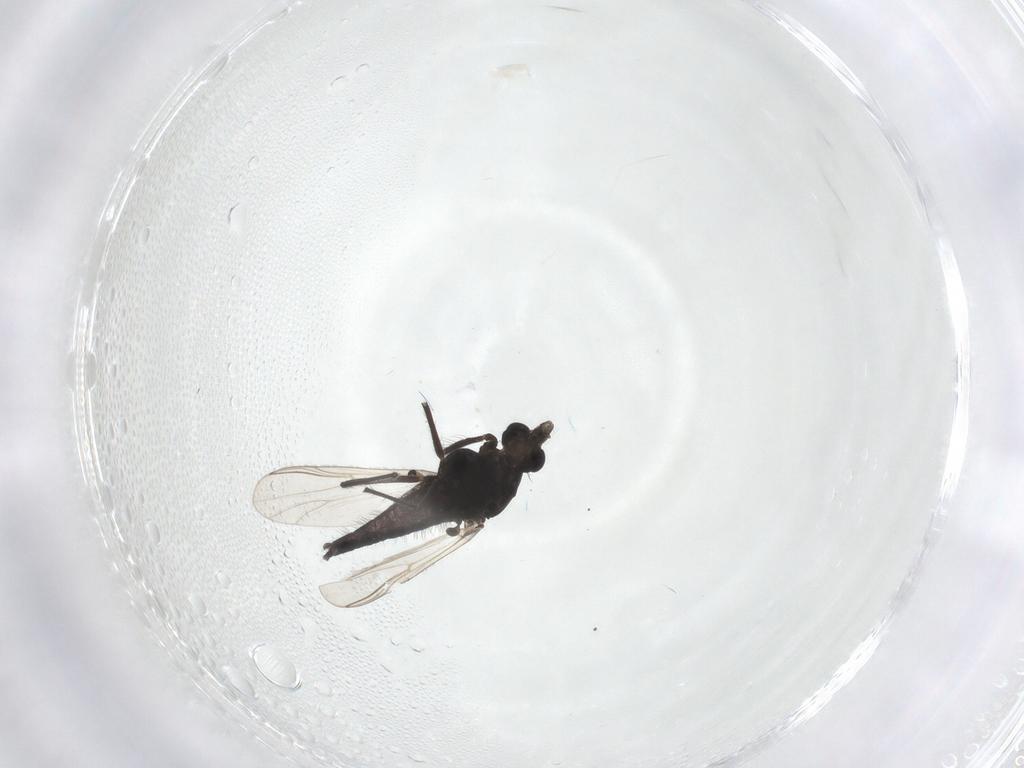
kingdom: Animalia
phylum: Arthropoda
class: Insecta
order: Diptera
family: Chironomidae
